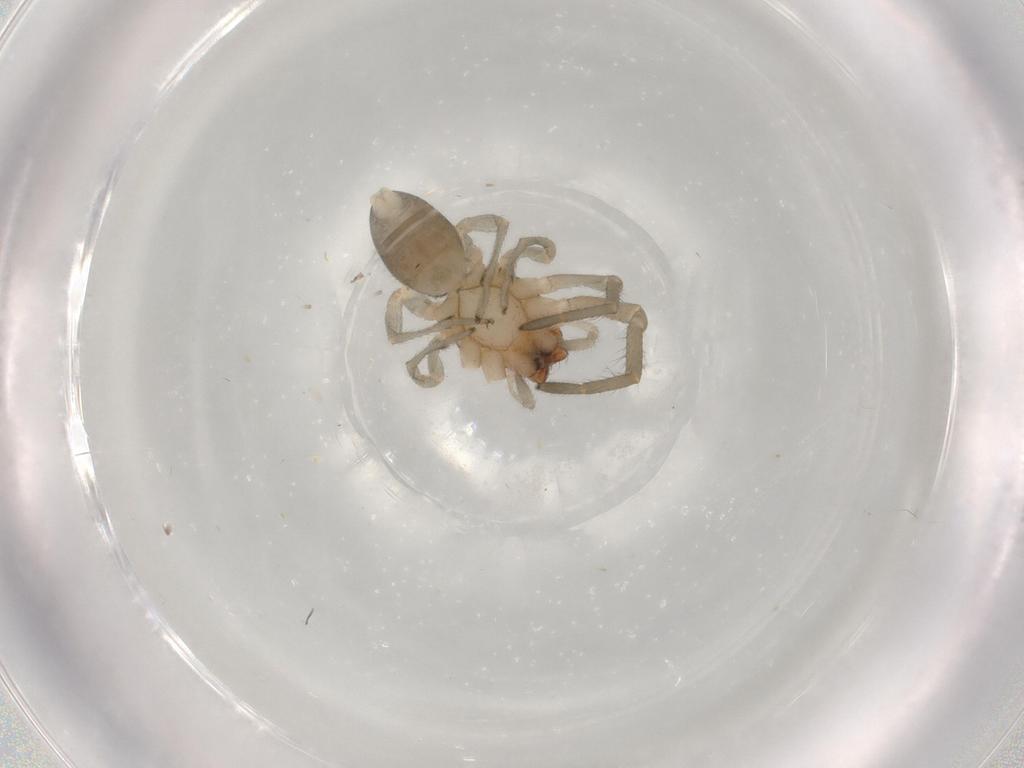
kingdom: Animalia
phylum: Arthropoda
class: Arachnida
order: Araneae
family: Anyphaenidae
